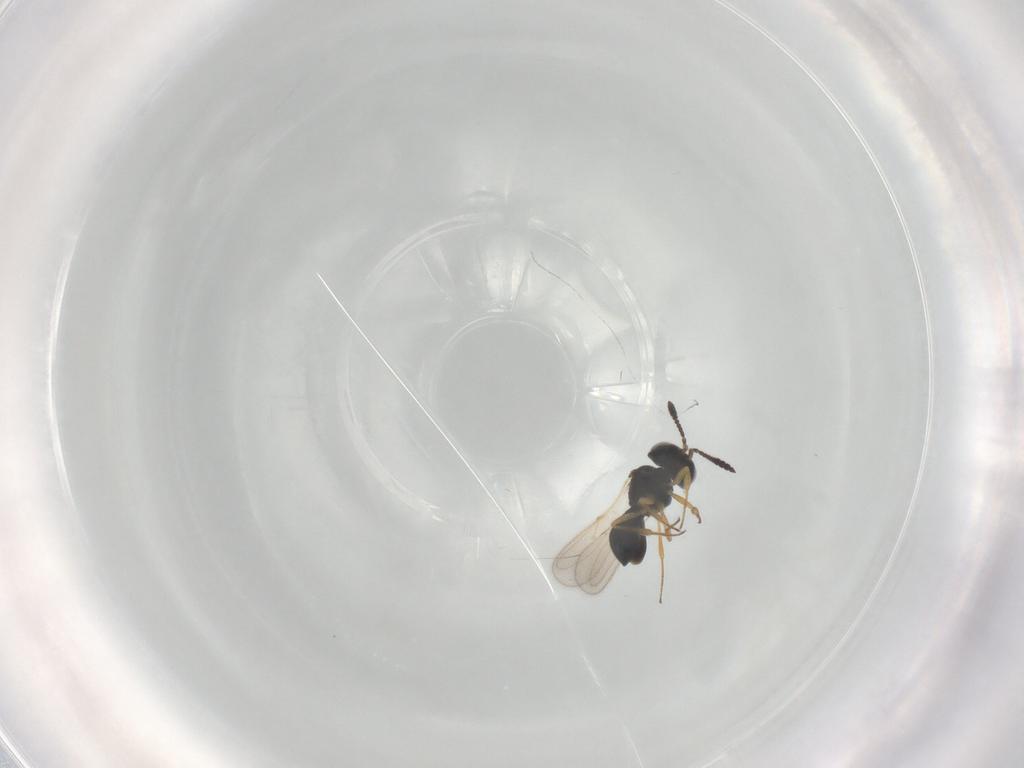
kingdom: Animalia
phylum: Arthropoda
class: Insecta
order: Hymenoptera
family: Scelionidae
